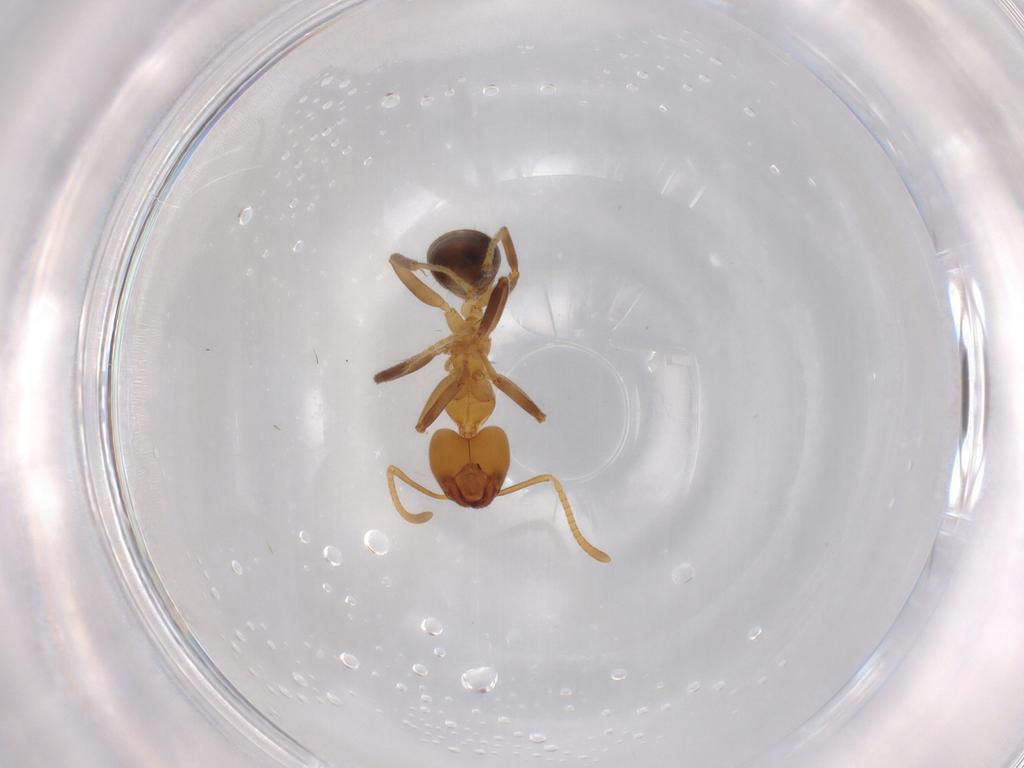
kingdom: Animalia
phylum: Arthropoda
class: Insecta
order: Hymenoptera
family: Formicidae
